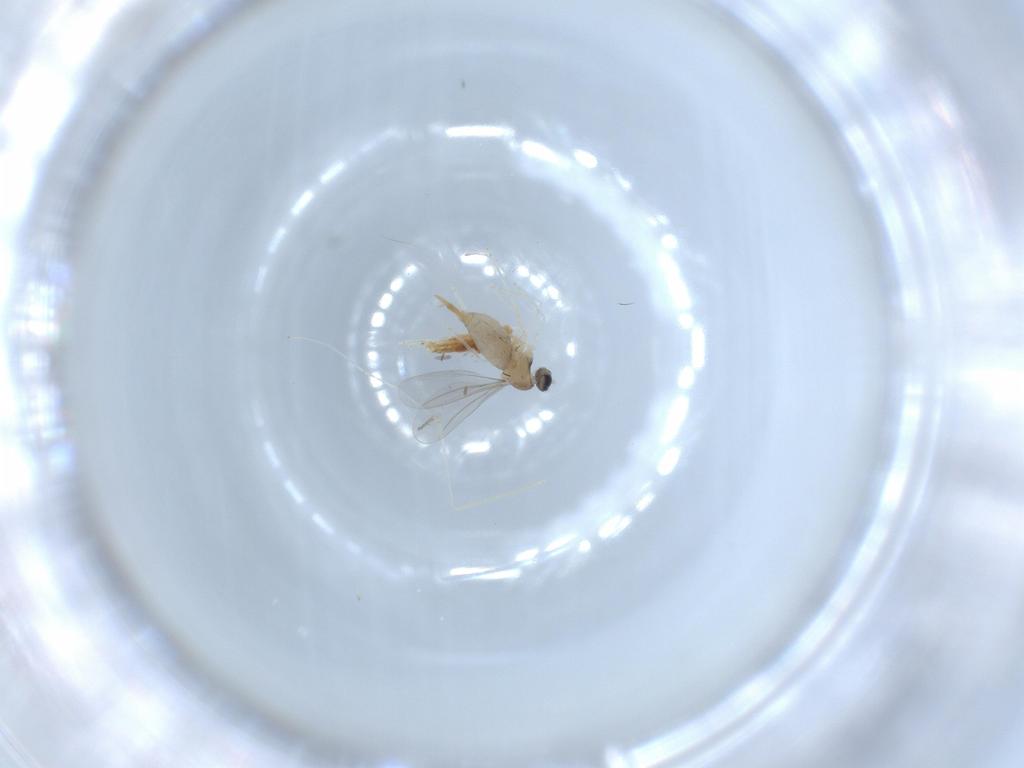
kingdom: Animalia
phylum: Arthropoda
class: Insecta
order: Diptera
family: Cecidomyiidae
